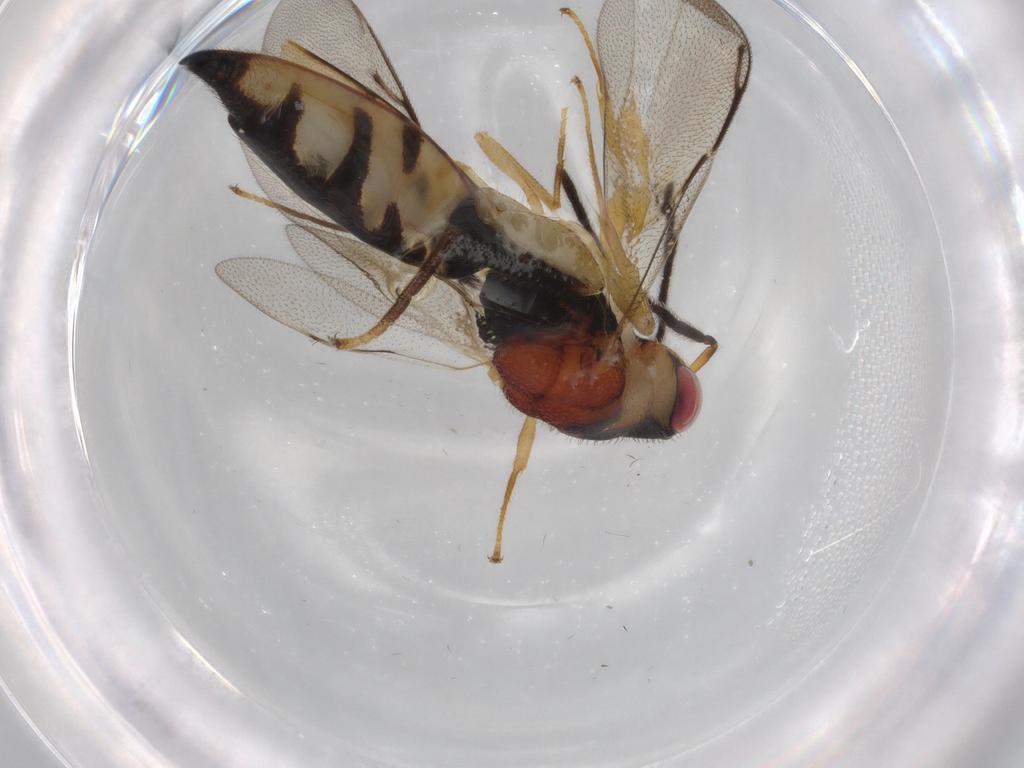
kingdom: Animalia
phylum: Arthropoda
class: Insecta
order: Hymenoptera
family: Eurytomidae
